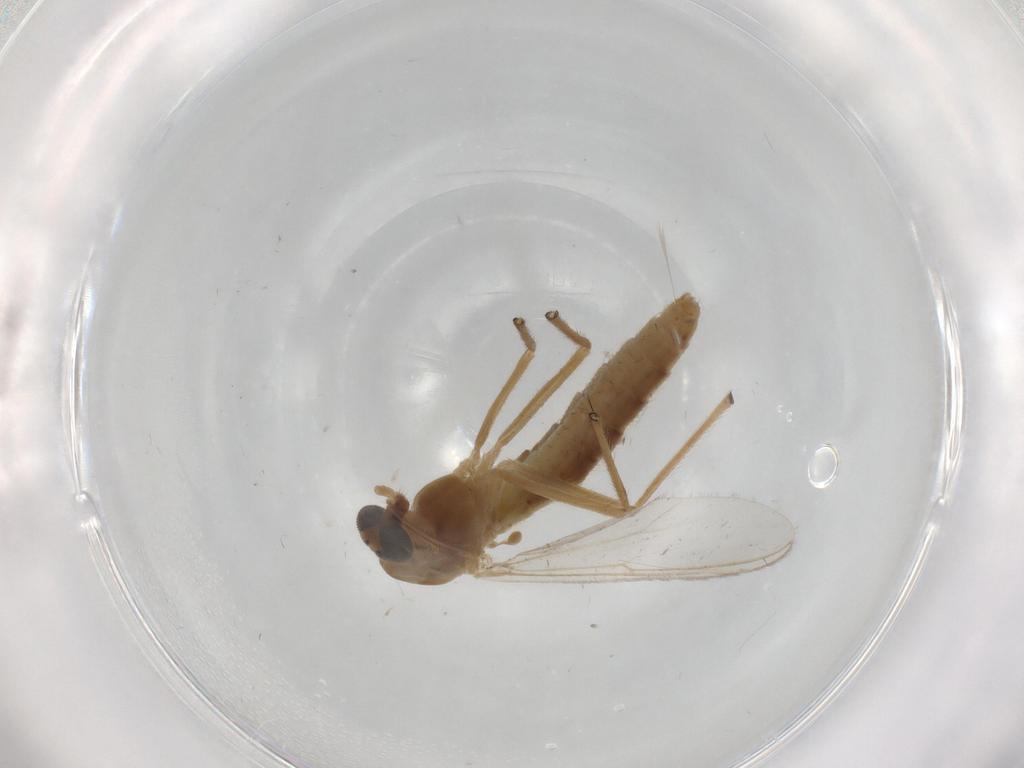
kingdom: Animalia
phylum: Arthropoda
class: Insecta
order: Diptera
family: Chironomidae
